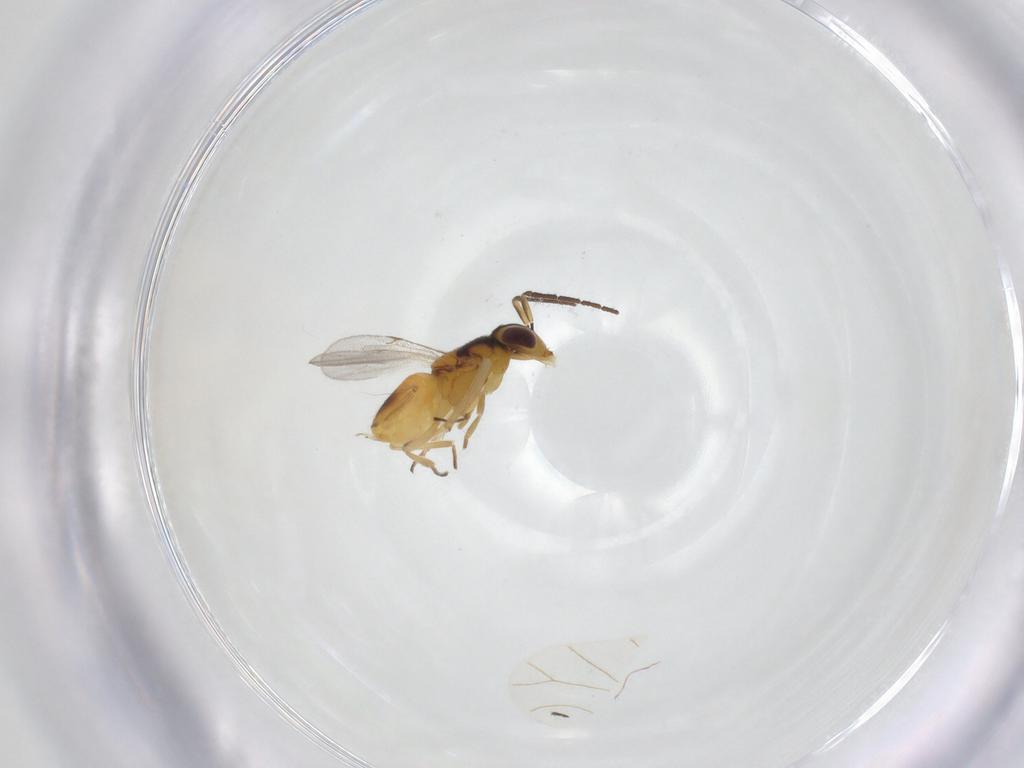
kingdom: Animalia
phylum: Arthropoda
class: Insecta
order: Hymenoptera
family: Encyrtidae
